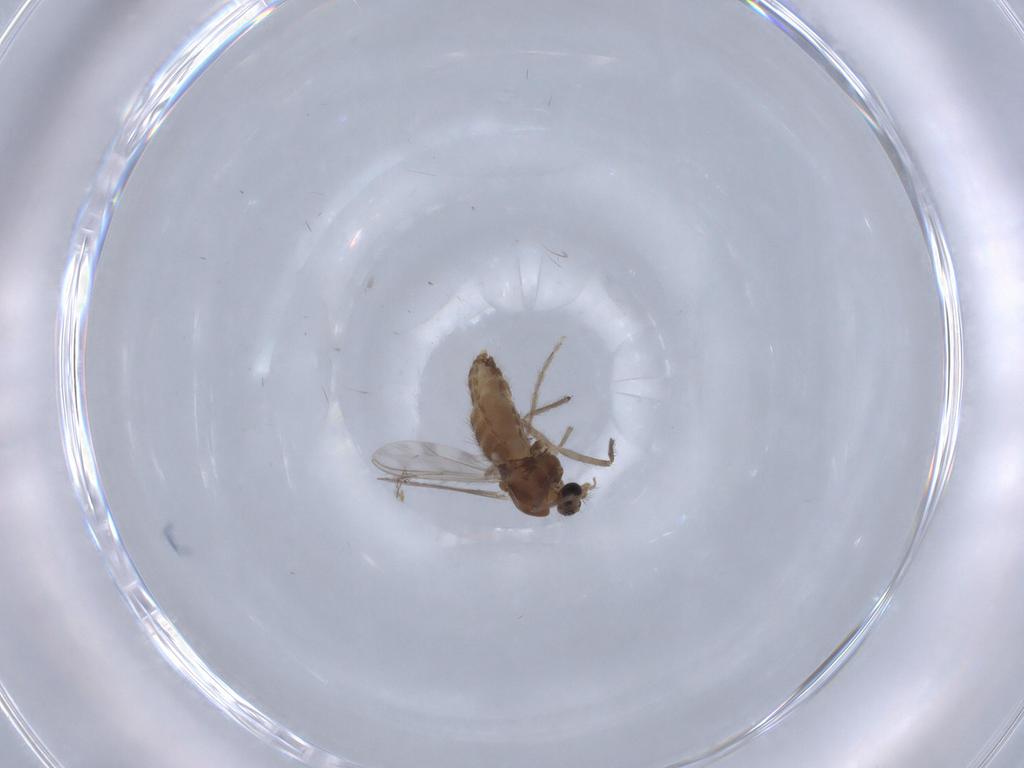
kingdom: Animalia
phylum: Arthropoda
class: Insecta
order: Diptera
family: Chironomidae
